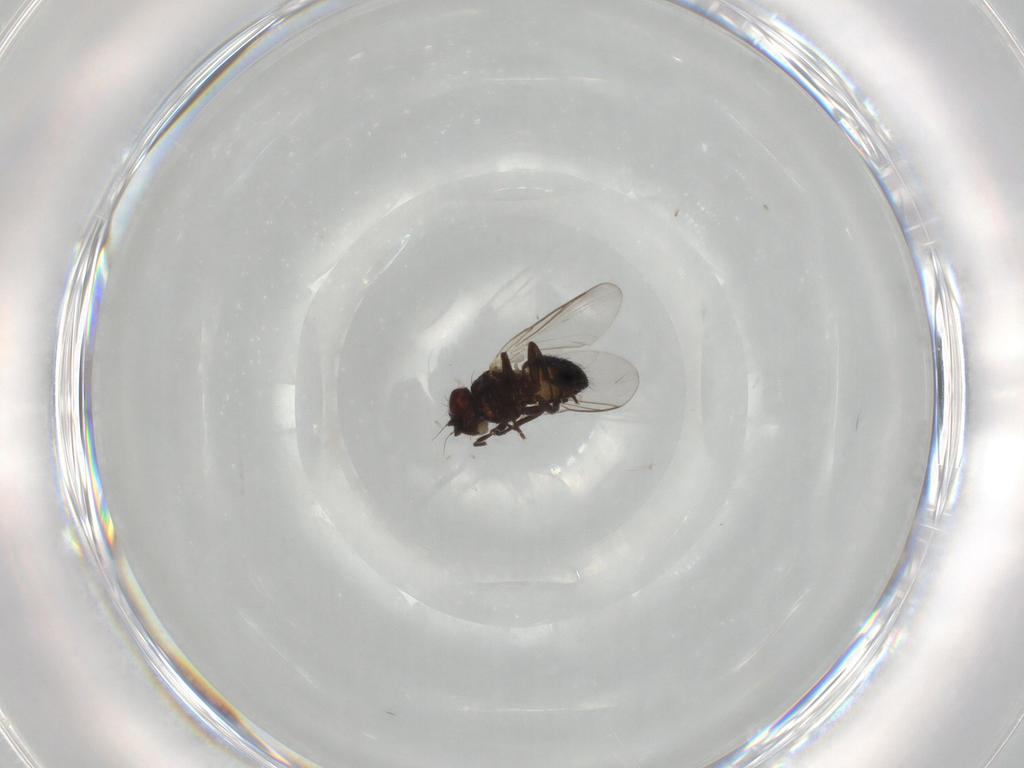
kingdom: Animalia
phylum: Arthropoda
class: Insecta
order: Diptera
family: Agromyzidae
